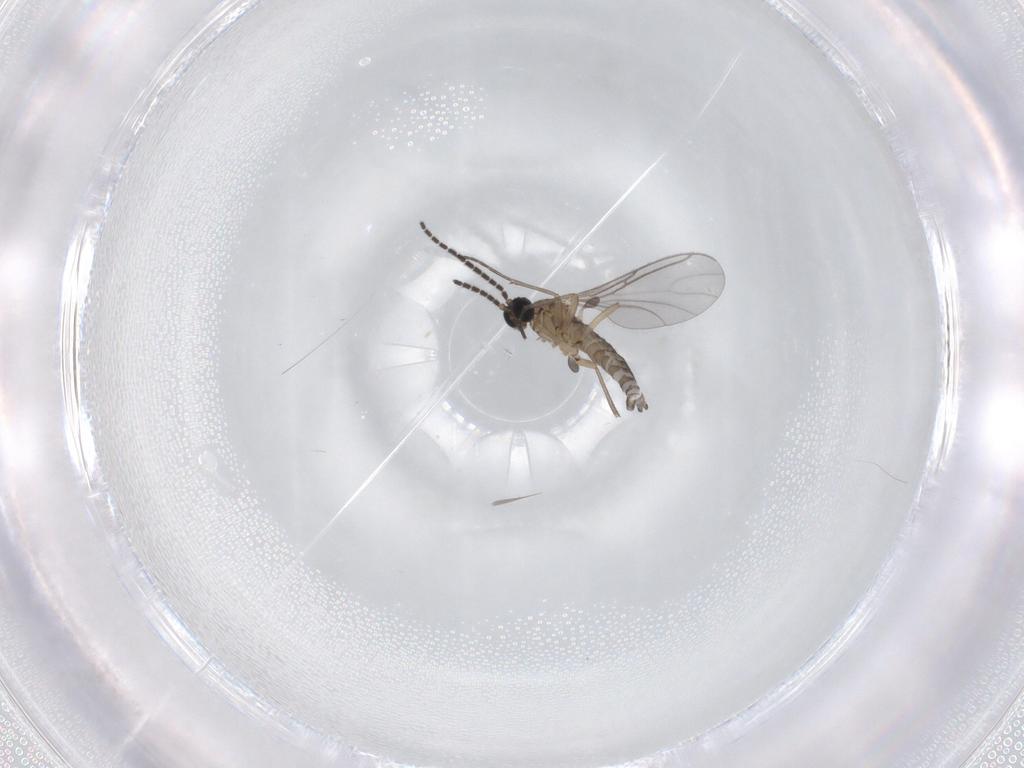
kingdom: Animalia
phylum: Arthropoda
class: Insecta
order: Diptera
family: Sciaridae
